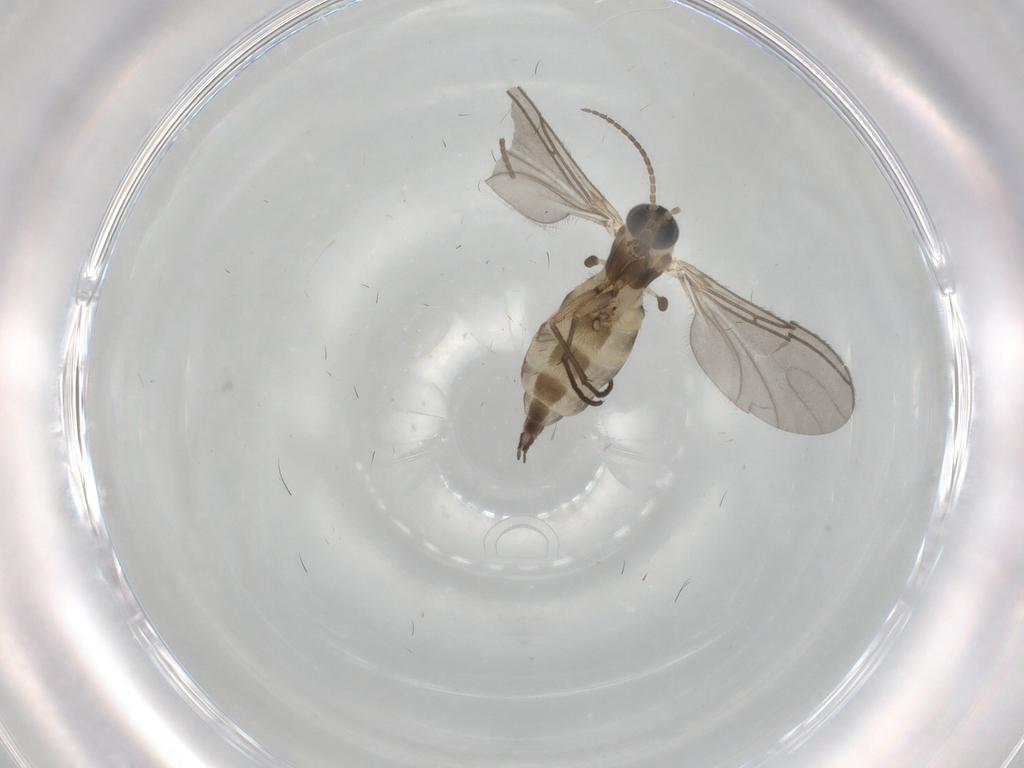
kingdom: Animalia
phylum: Arthropoda
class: Insecta
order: Diptera
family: Sciaridae
